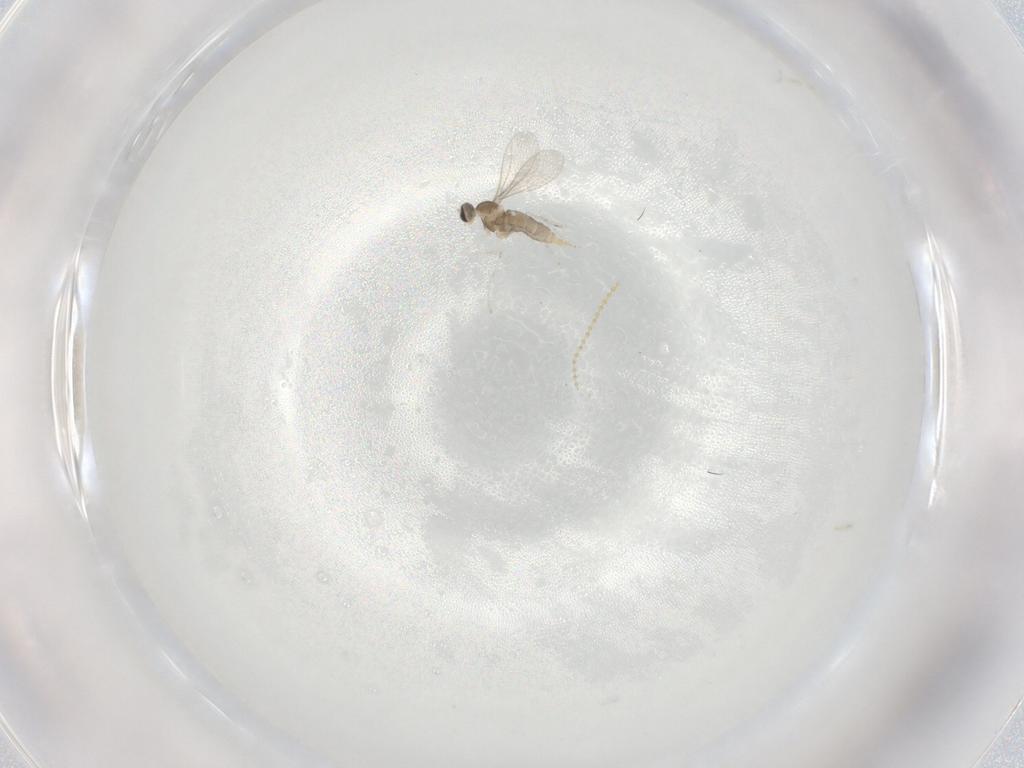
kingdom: Animalia
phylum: Arthropoda
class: Insecta
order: Diptera
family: Cecidomyiidae
